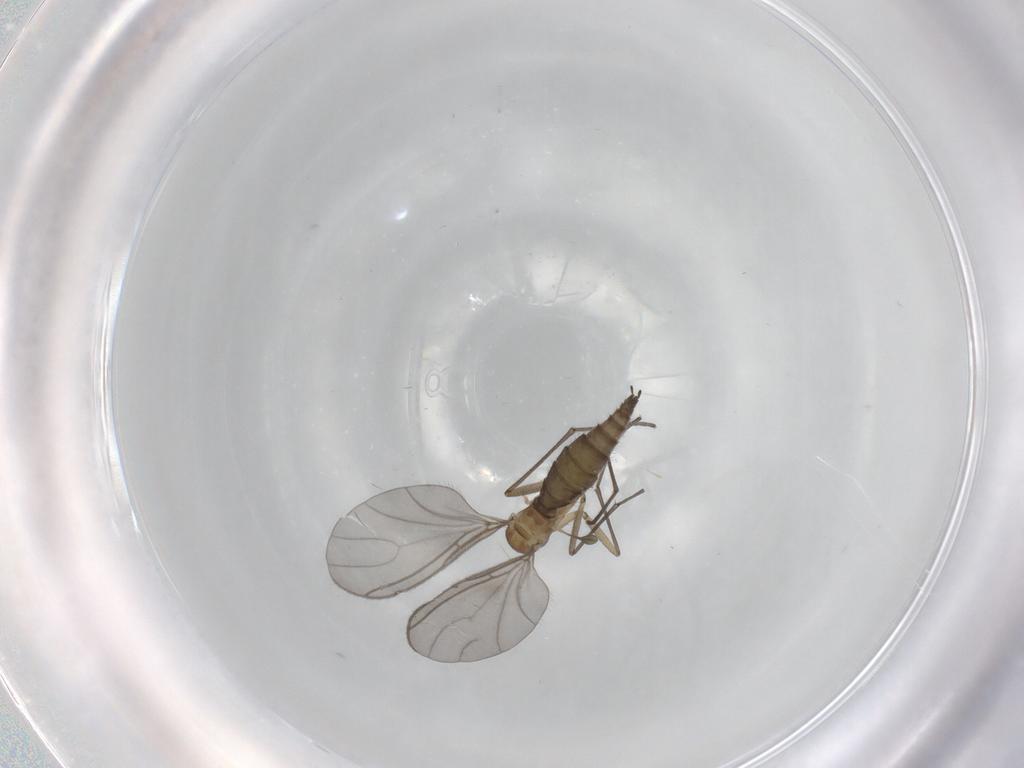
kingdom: Animalia
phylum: Arthropoda
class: Insecta
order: Diptera
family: Sciaridae
